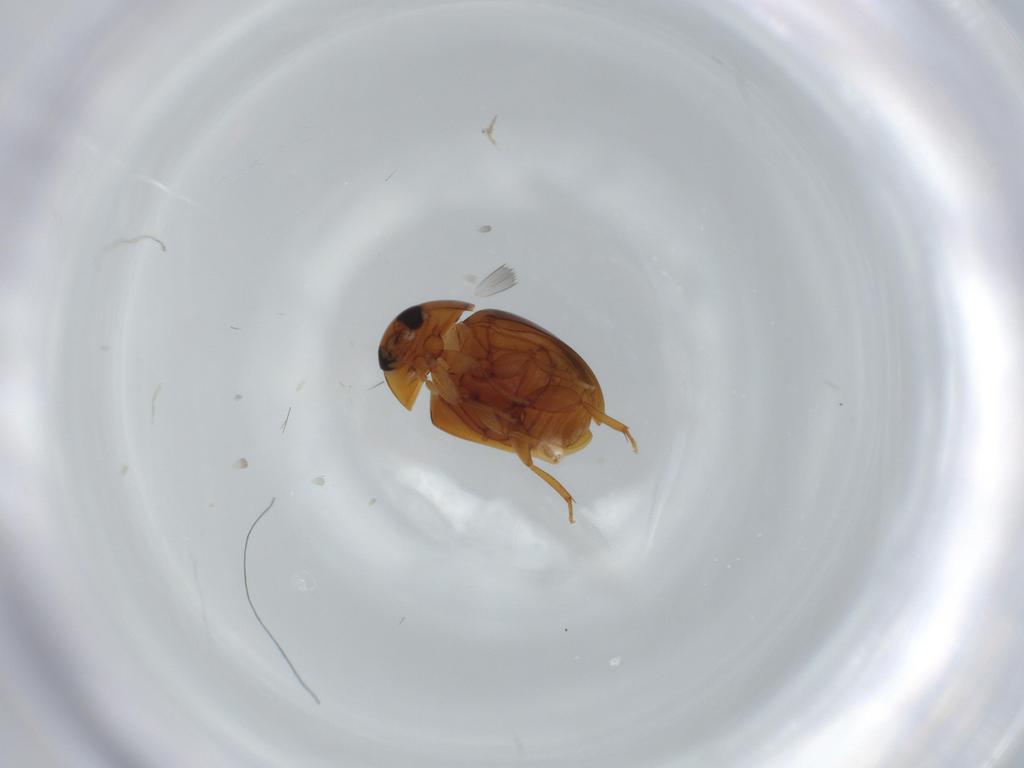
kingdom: Animalia
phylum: Arthropoda
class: Insecta
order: Coleoptera
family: Phalacridae
